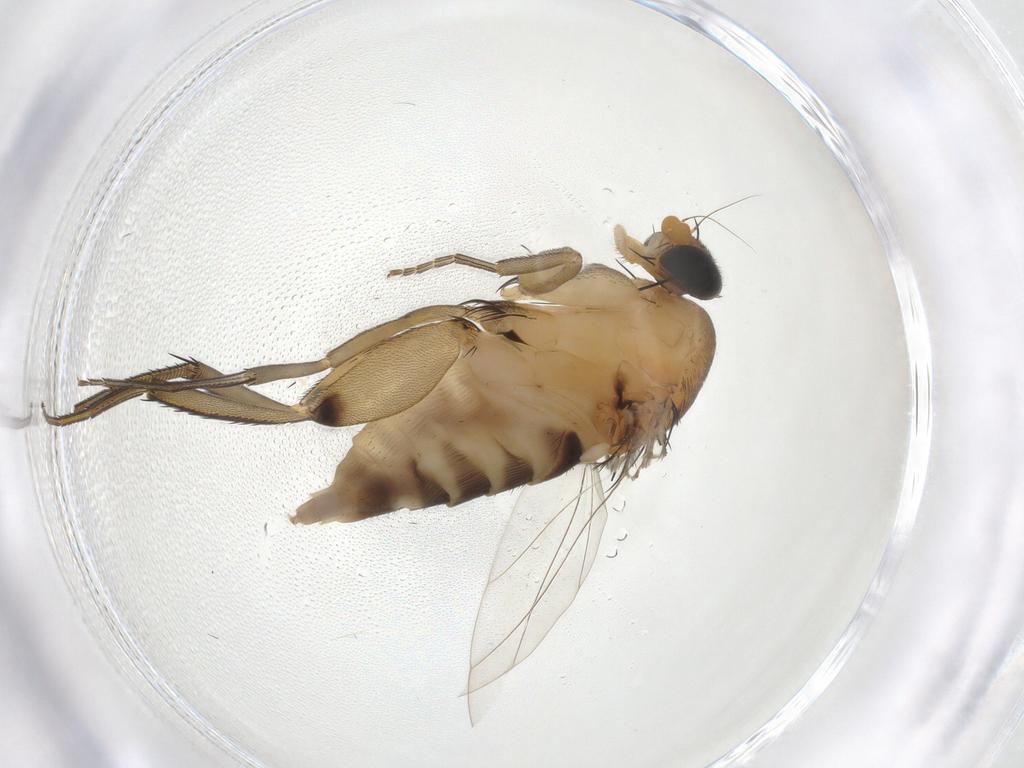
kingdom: Animalia
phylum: Arthropoda
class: Insecta
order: Diptera
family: Phoridae
